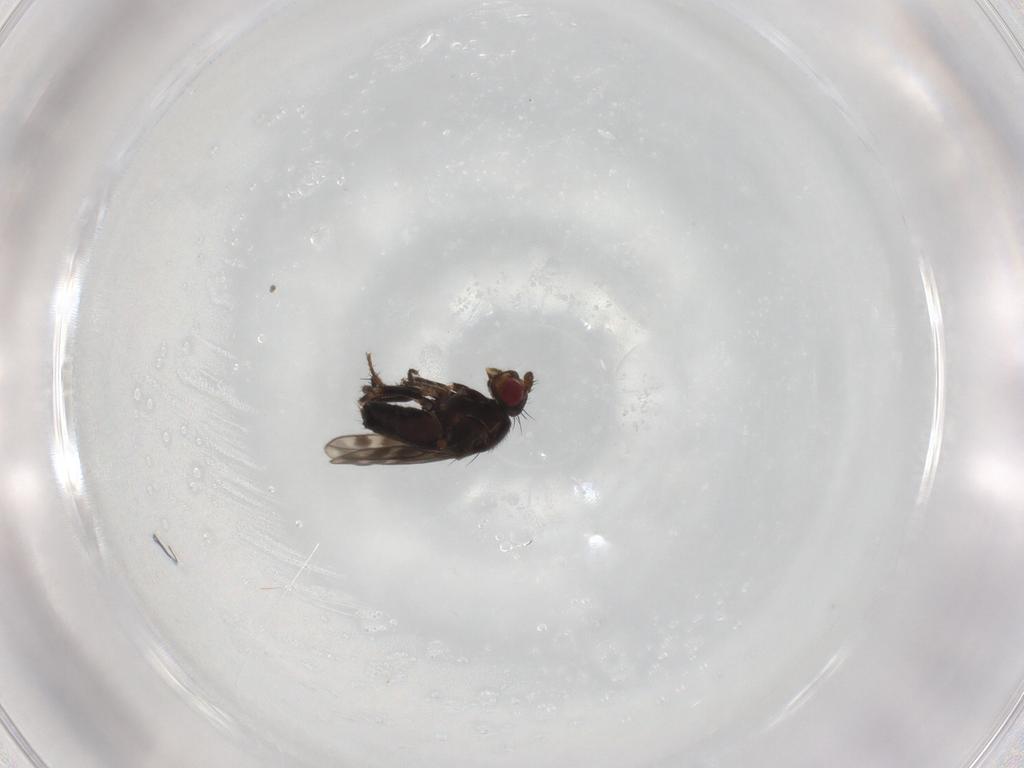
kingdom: Animalia
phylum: Arthropoda
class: Insecta
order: Diptera
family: Sphaeroceridae
